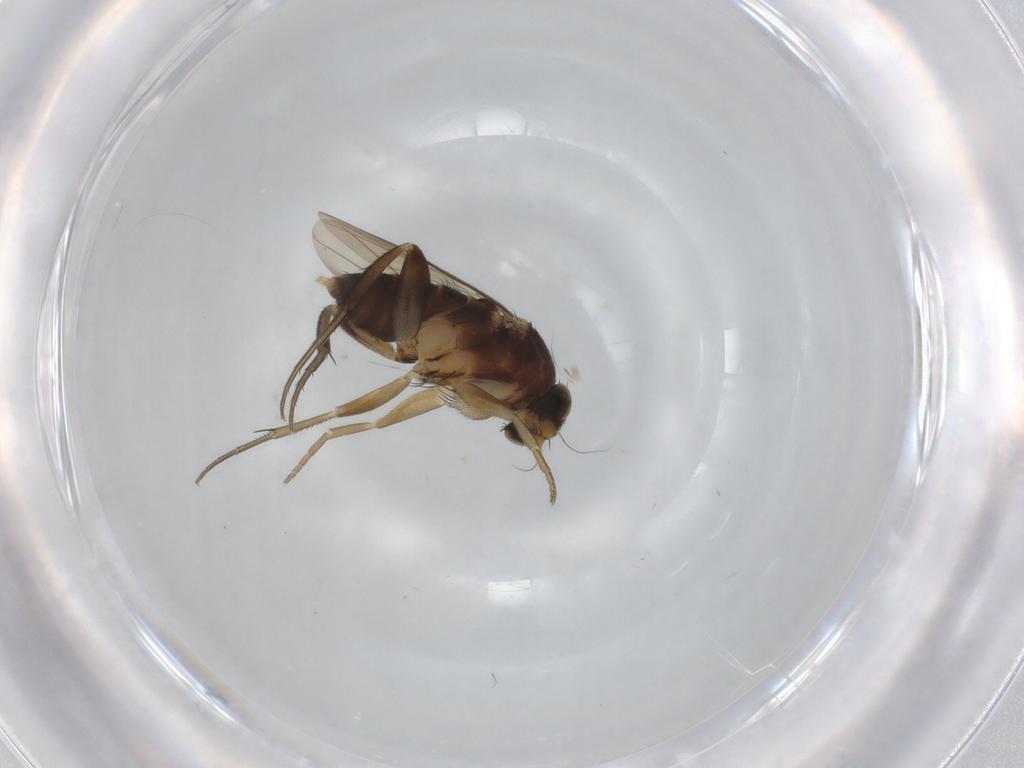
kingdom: Animalia
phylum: Arthropoda
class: Insecta
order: Diptera
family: Phoridae
